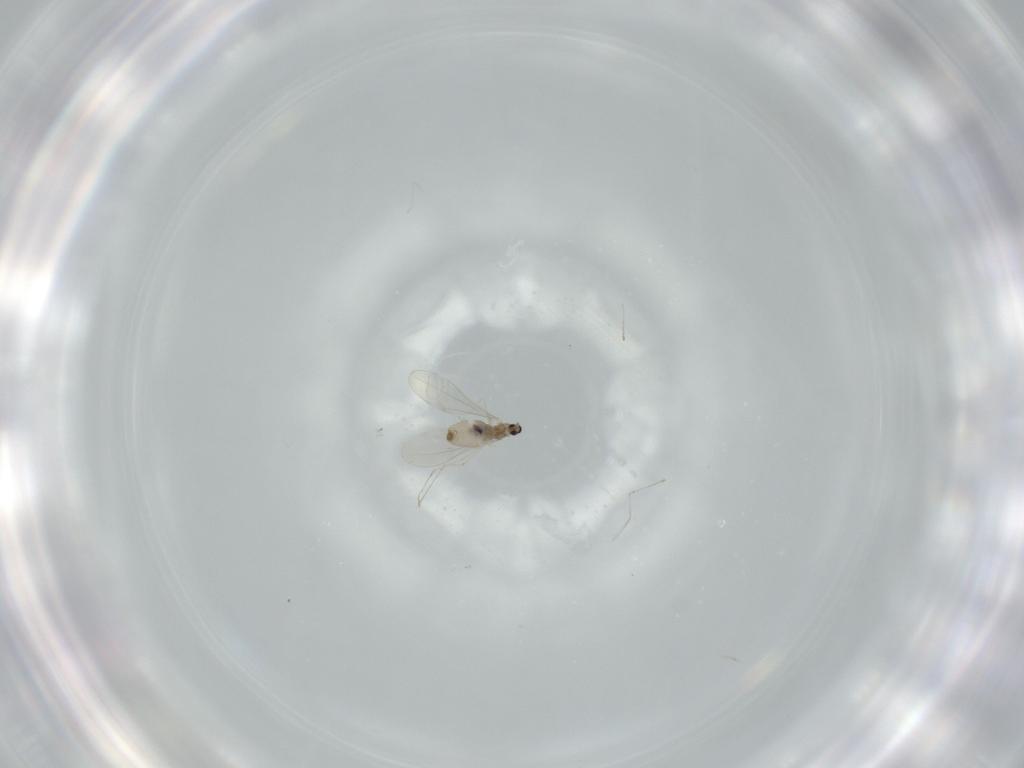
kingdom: Animalia
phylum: Arthropoda
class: Insecta
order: Diptera
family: Cecidomyiidae
